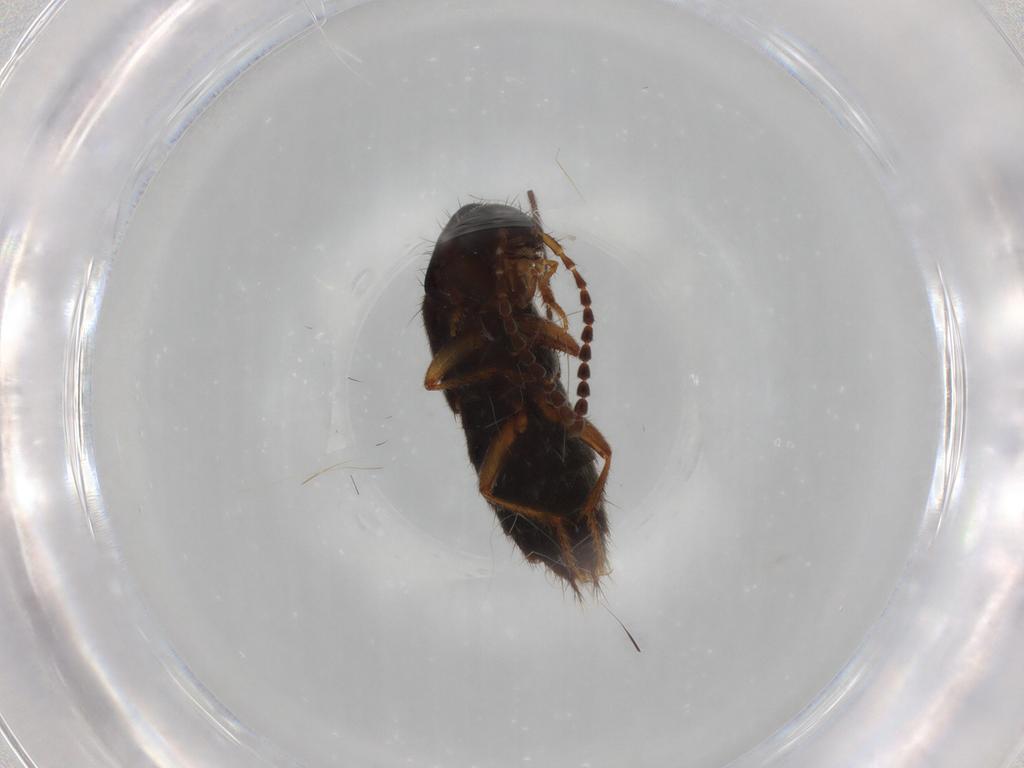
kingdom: Animalia
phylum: Arthropoda
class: Insecta
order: Coleoptera
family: Staphylinidae
